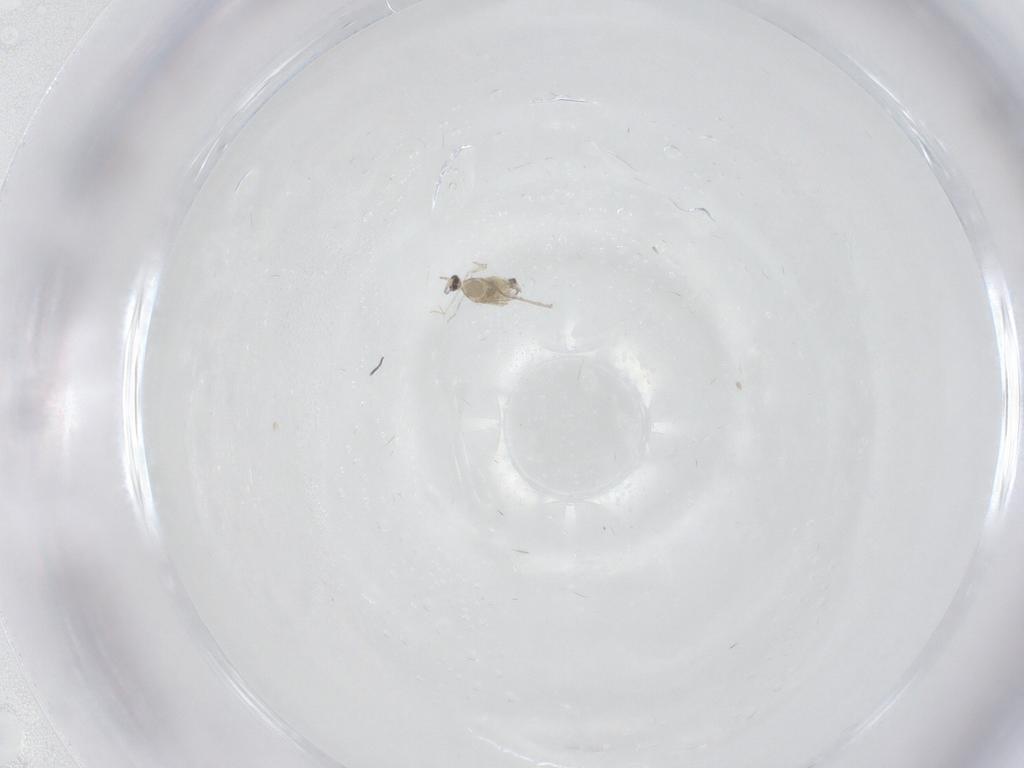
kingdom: Animalia
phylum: Arthropoda
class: Insecta
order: Diptera
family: Cecidomyiidae
